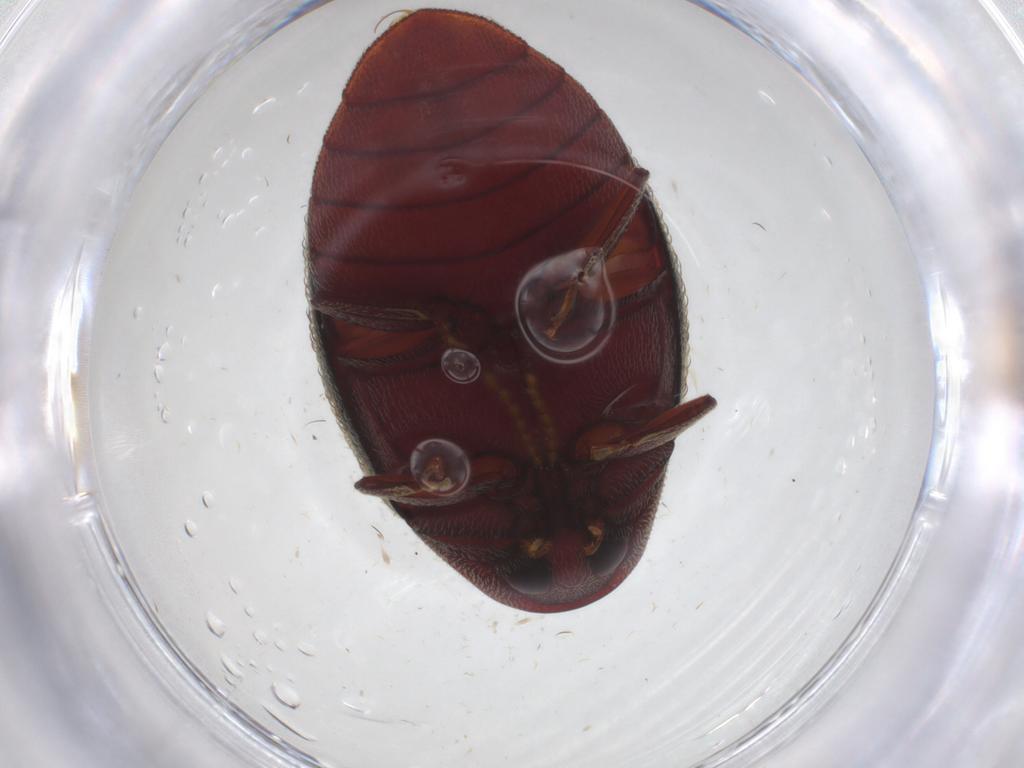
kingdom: Animalia
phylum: Arthropoda
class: Insecta
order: Coleoptera
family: Chelonariidae
